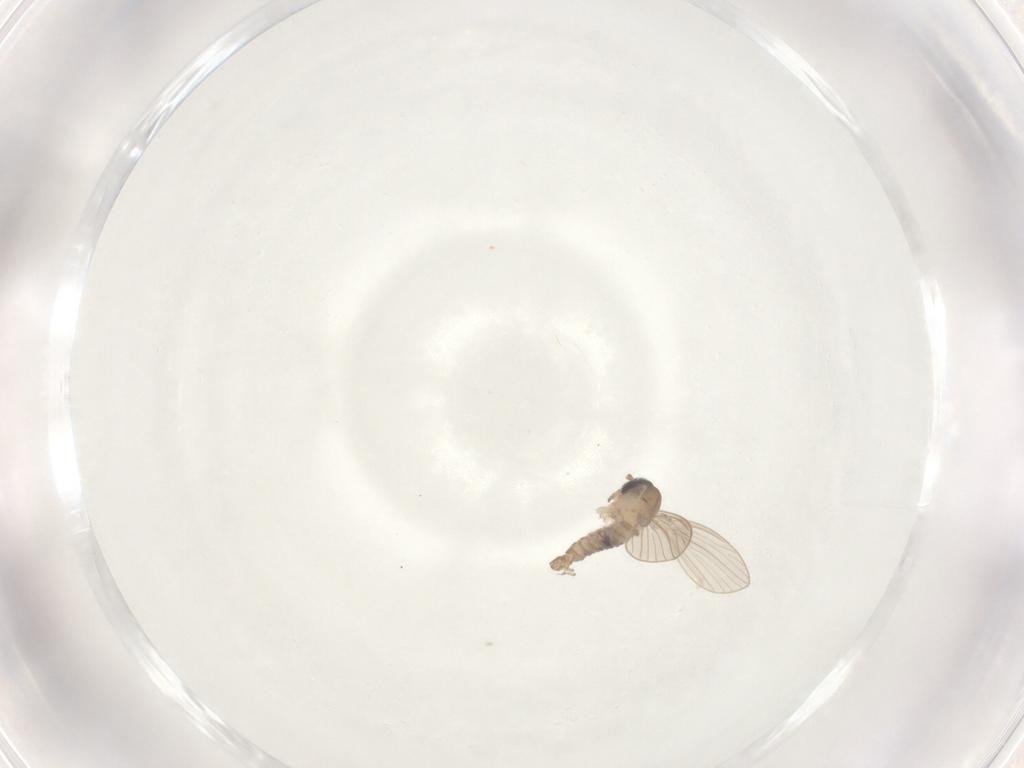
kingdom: Animalia
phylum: Arthropoda
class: Insecta
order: Diptera
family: Psychodidae
